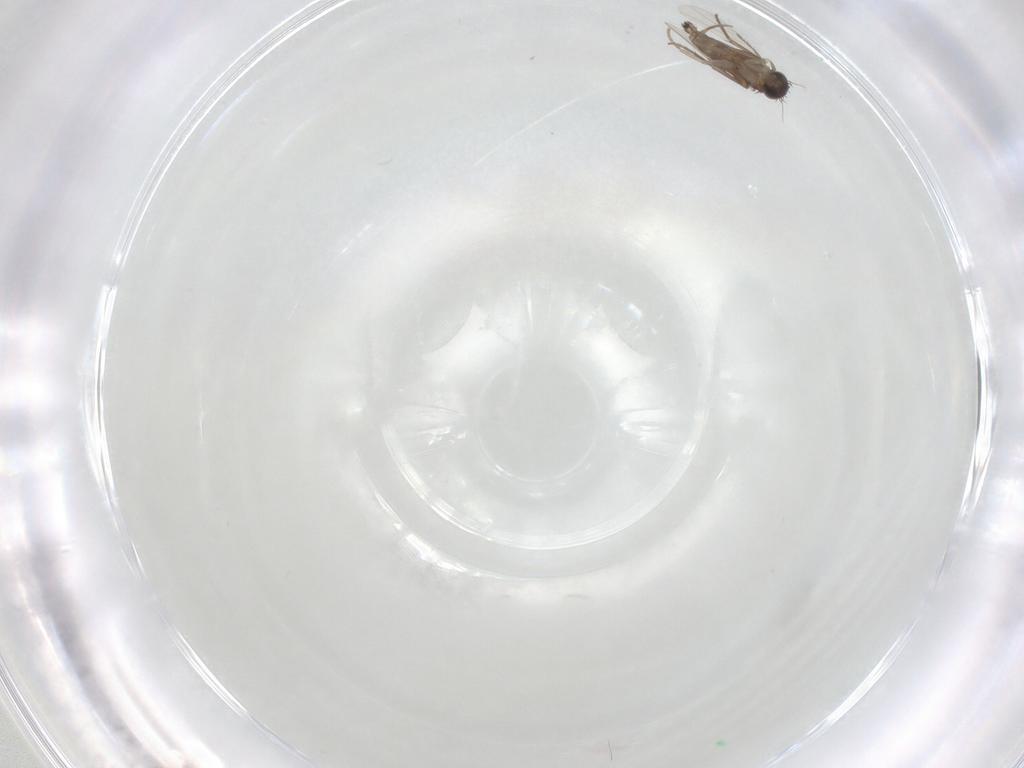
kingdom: Animalia
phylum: Arthropoda
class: Insecta
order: Diptera
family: Phoridae
